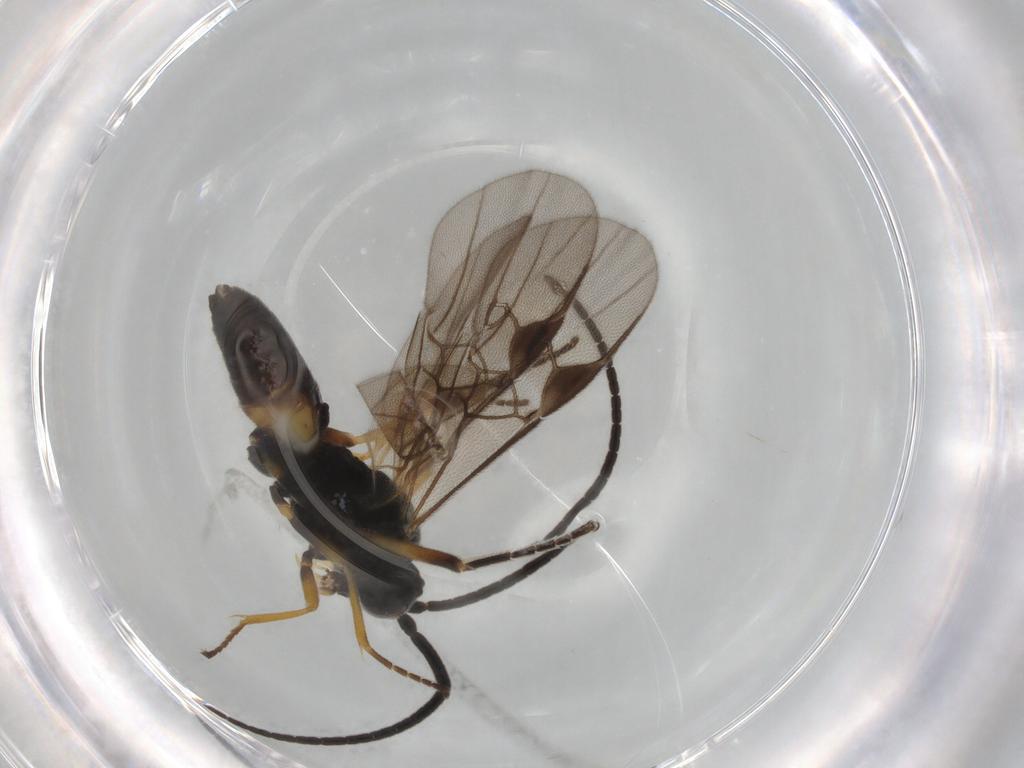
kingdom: Animalia
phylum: Arthropoda
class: Insecta
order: Hymenoptera
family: Braconidae
